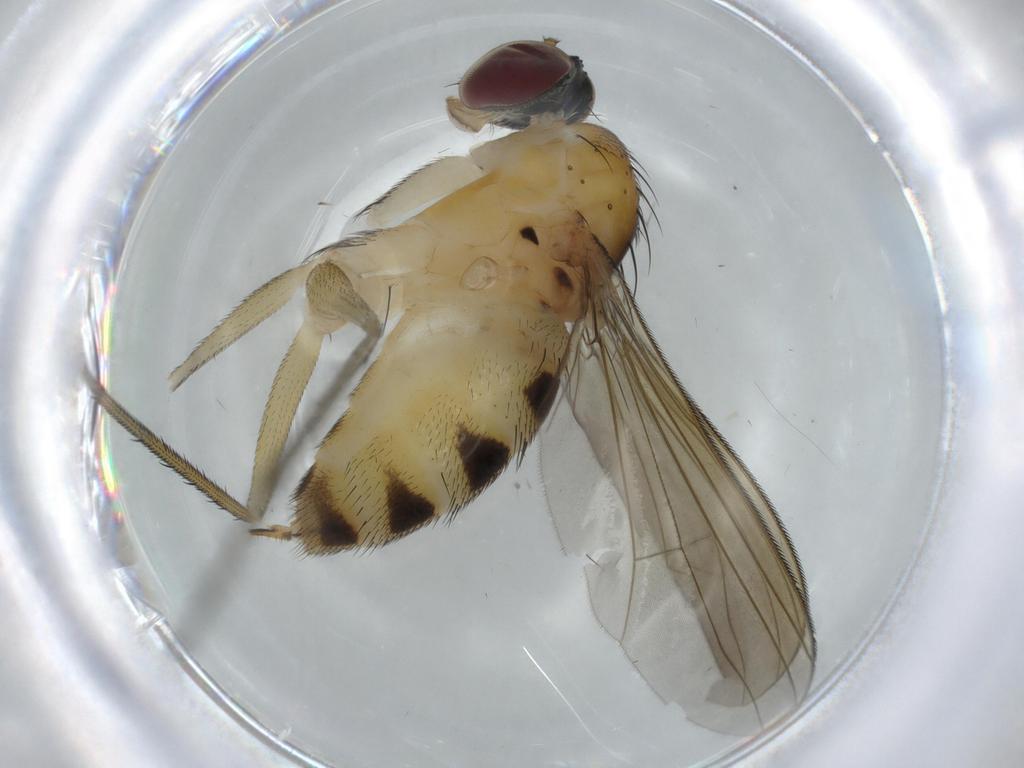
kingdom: Animalia
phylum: Arthropoda
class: Insecta
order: Diptera
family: Dolichopodidae
